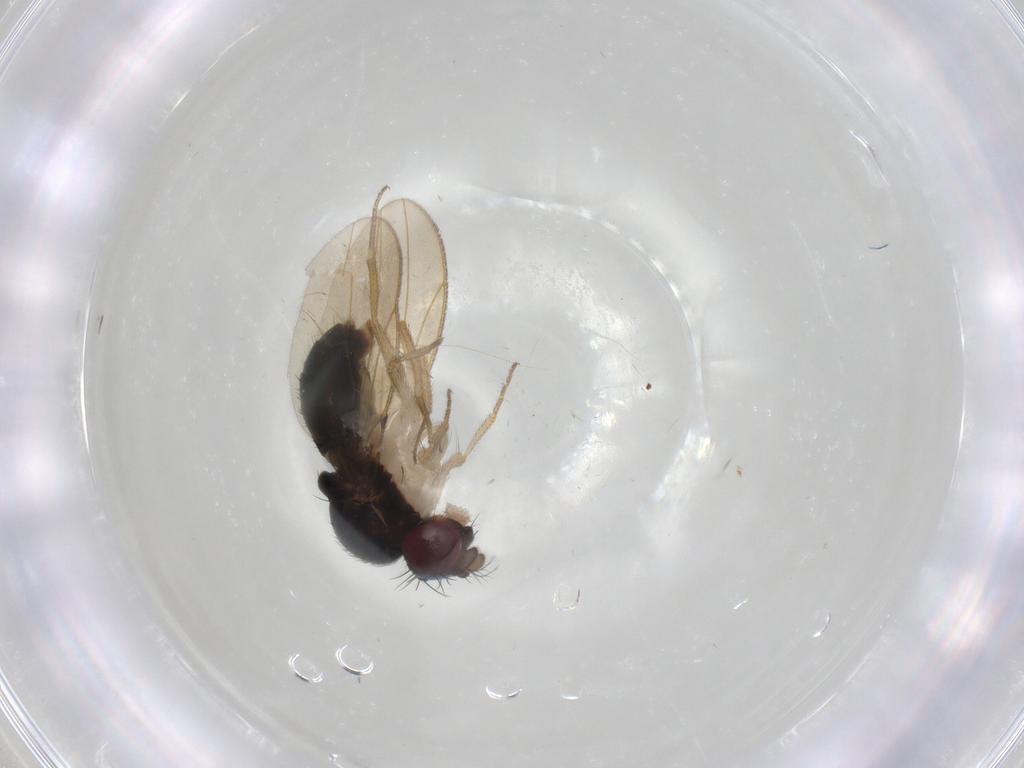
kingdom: Animalia
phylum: Arthropoda
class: Insecta
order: Diptera
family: Drosophilidae
